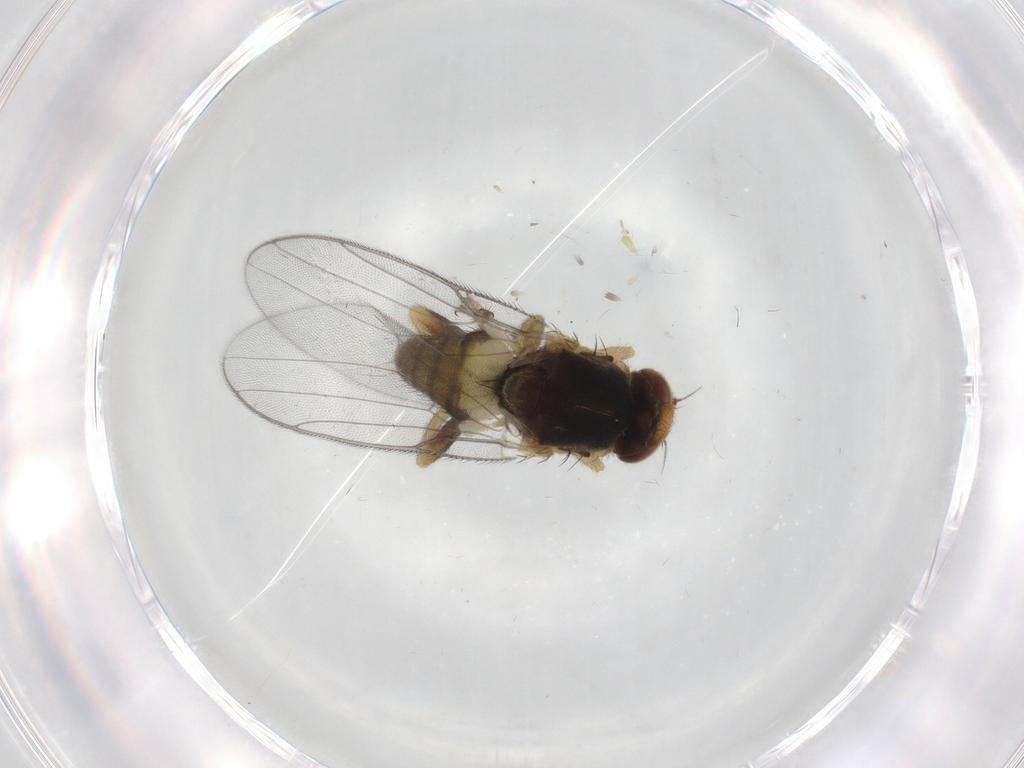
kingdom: Animalia
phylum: Arthropoda
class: Insecta
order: Diptera
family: Chloropidae
